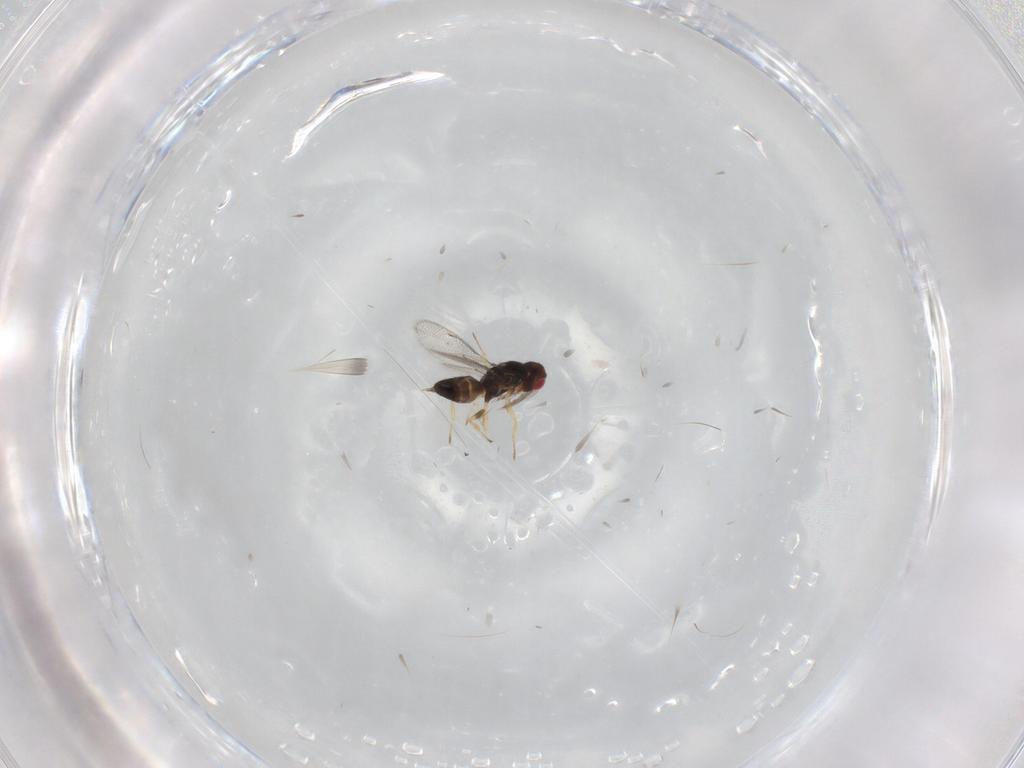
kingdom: Animalia
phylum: Arthropoda
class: Insecta
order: Hymenoptera
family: Eulophidae
